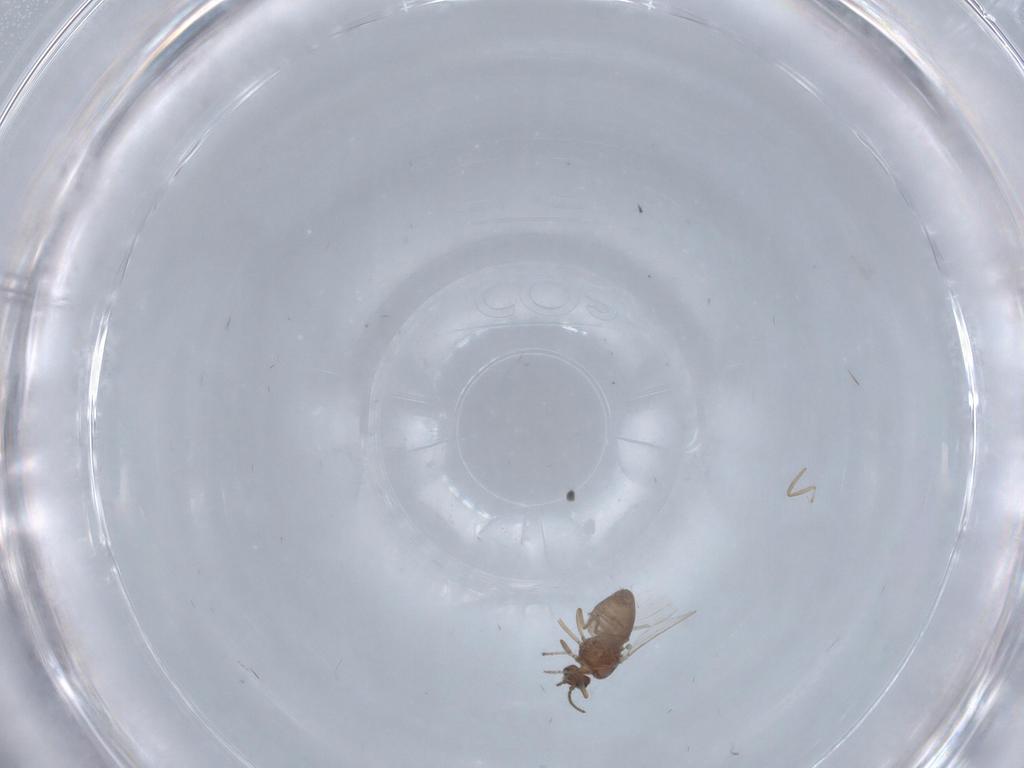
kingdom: Animalia
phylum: Arthropoda
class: Insecta
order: Diptera
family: Ceratopogonidae
